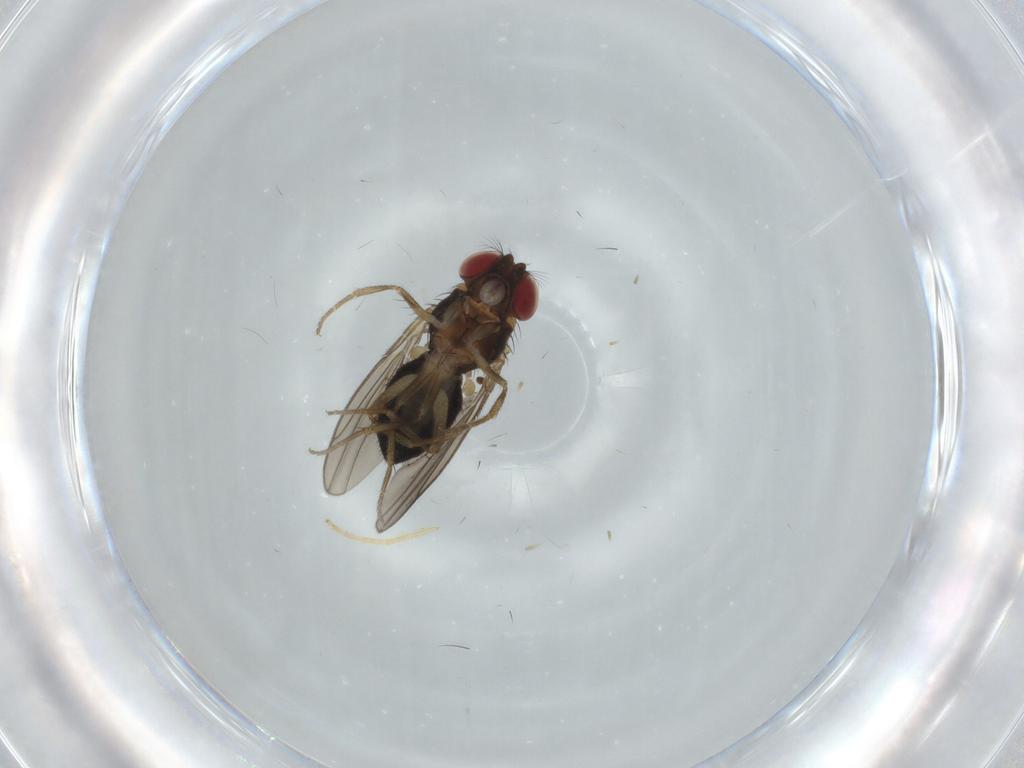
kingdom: Animalia
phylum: Arthropoda
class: Insecta
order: Diptera
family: Drosophilidae
